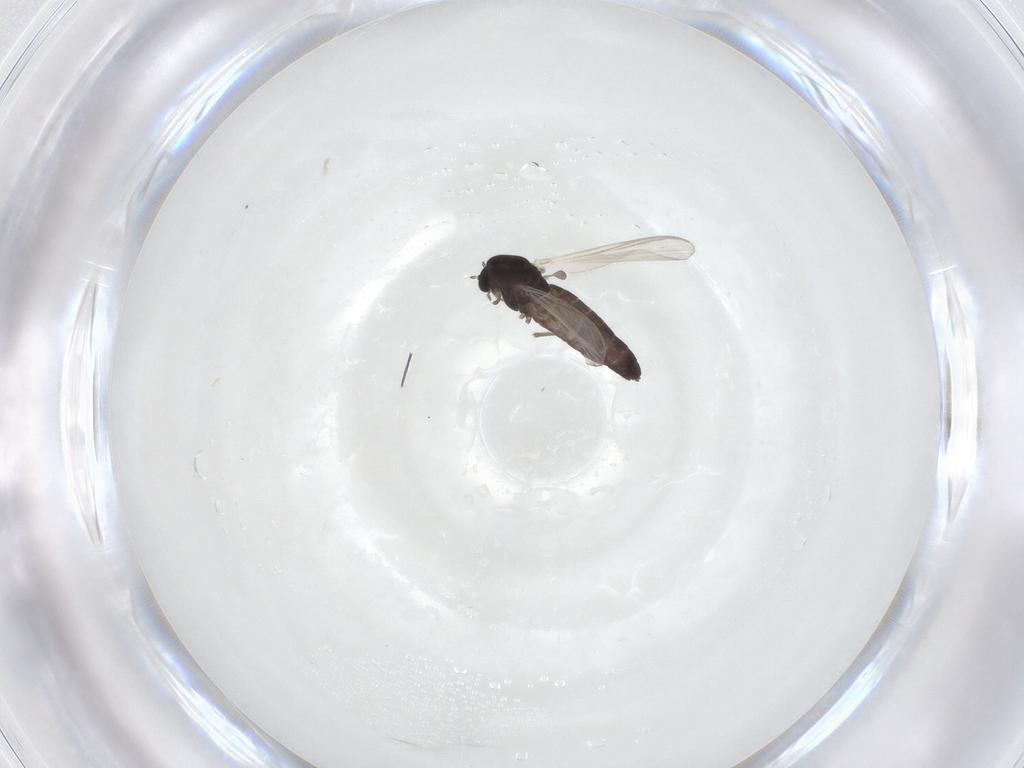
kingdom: Animalia
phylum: Arthropoda
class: Insecta
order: Diptera
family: Chironomidae
